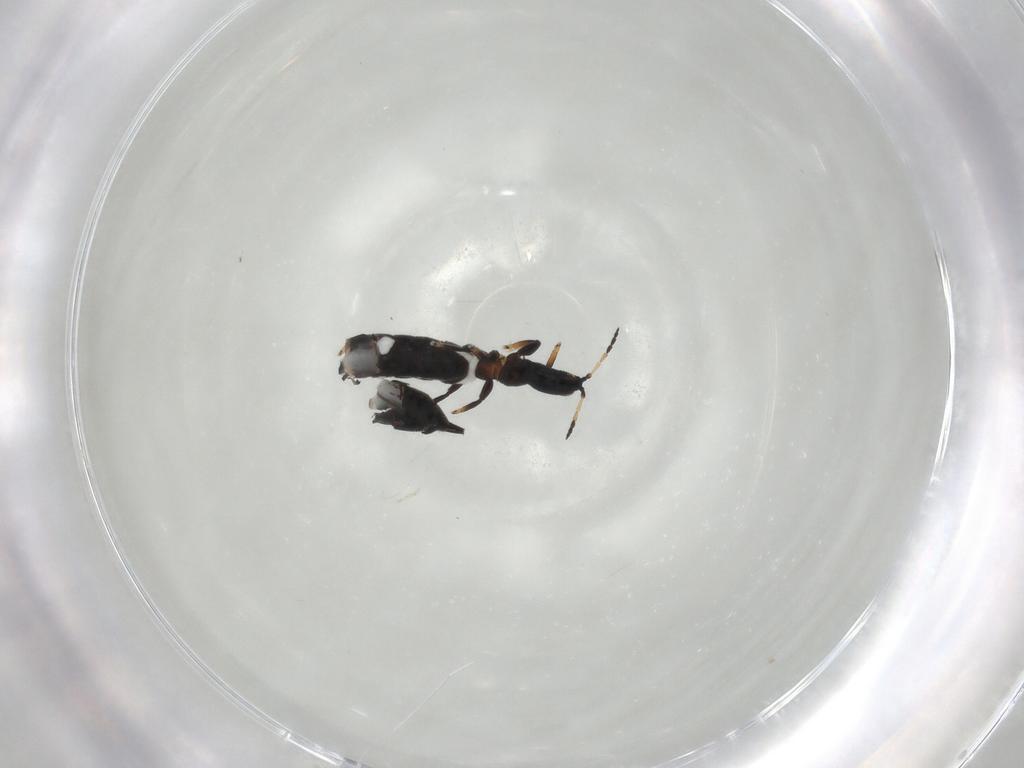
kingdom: Animalia
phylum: Arthropoda
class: Insecta
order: Thysanoptera
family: Phlaeothripidae
